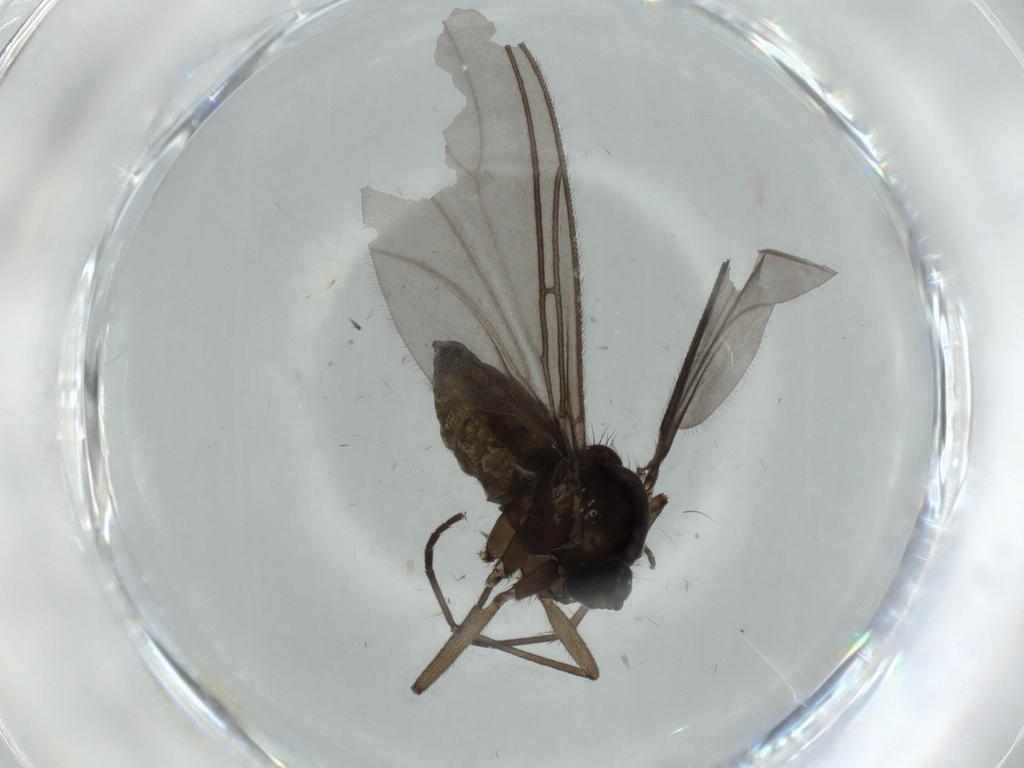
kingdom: Animalia
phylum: Arthropoda
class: Insecta
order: Diptera
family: Sciaridae
